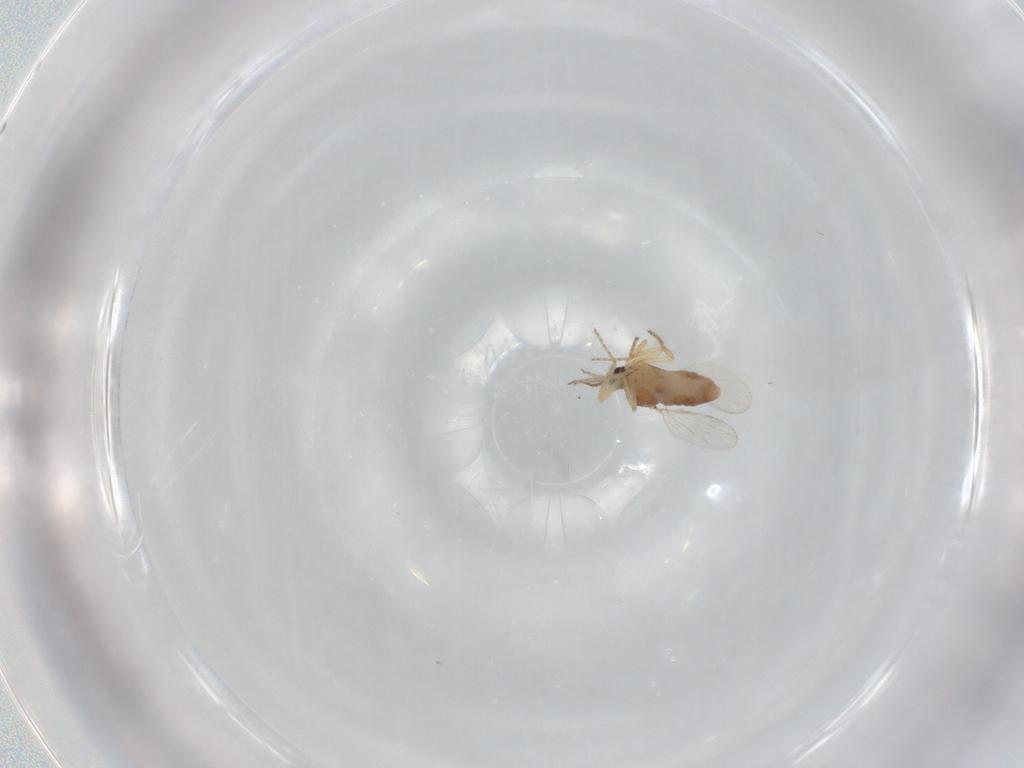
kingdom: Animalia
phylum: Arthropoda
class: Insecta
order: Diptera
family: Ceratopogonidae
